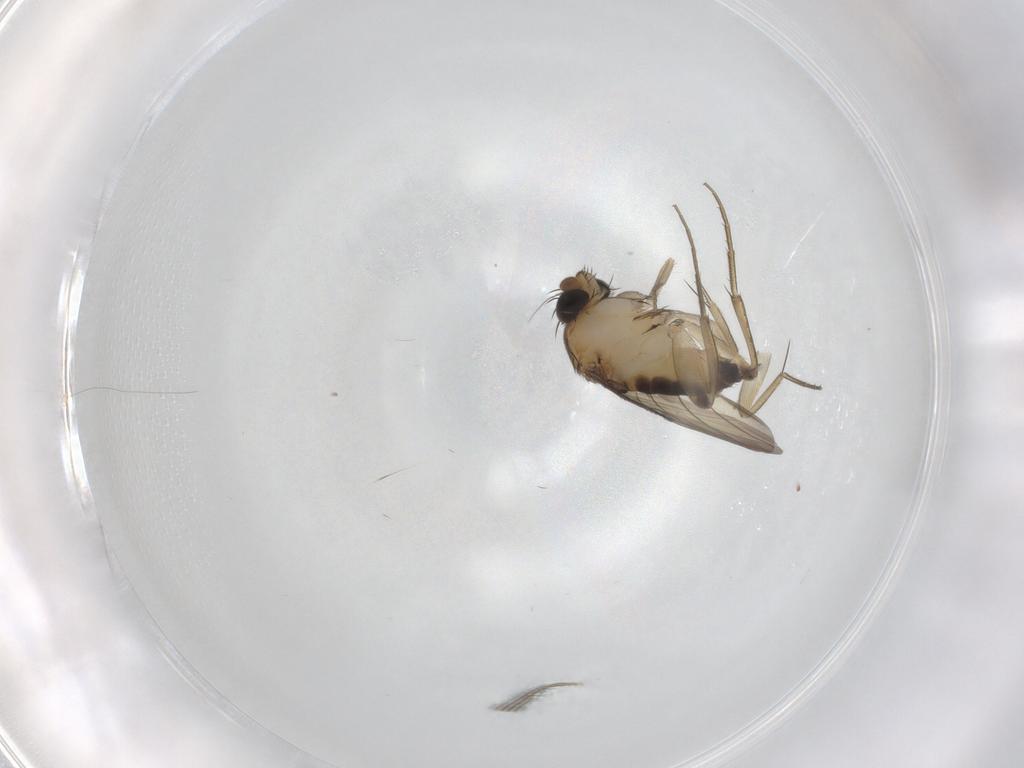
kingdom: Animalia
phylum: Arthropoda
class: Insecta
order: Diptera
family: Phoridae
